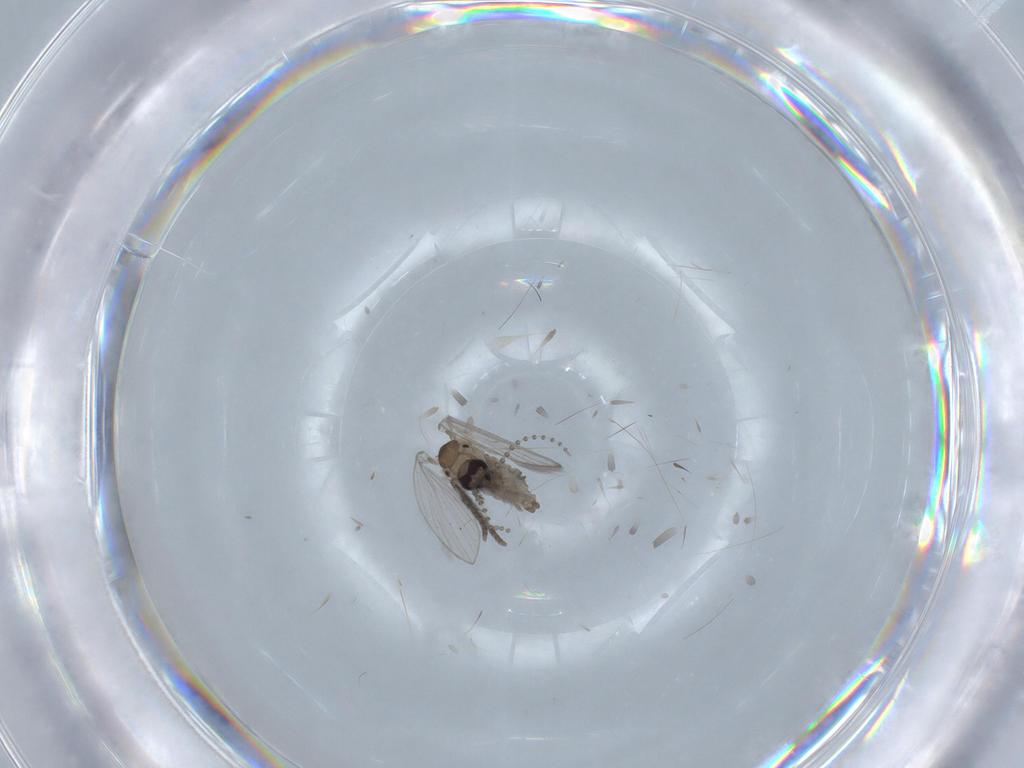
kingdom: Animalia
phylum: Arthropoda
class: Insecta
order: Diptera
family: Psychodidae
